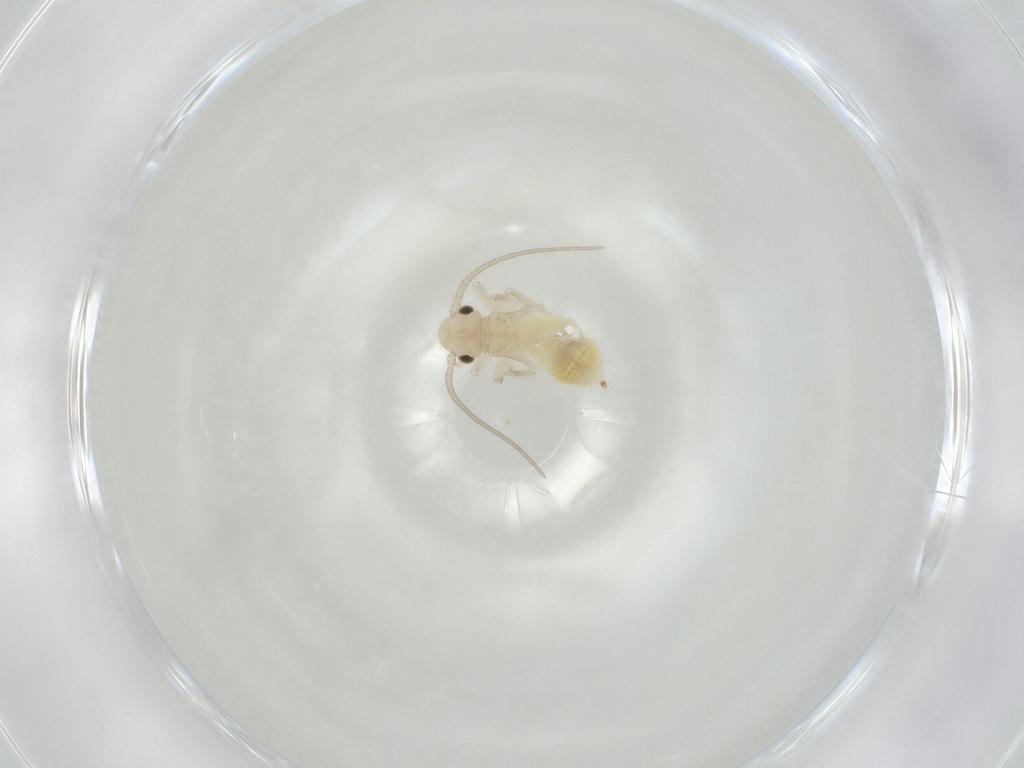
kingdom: Animalia
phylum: Arthropoda
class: Insecta
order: Psocodea
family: Caeciliusidae
